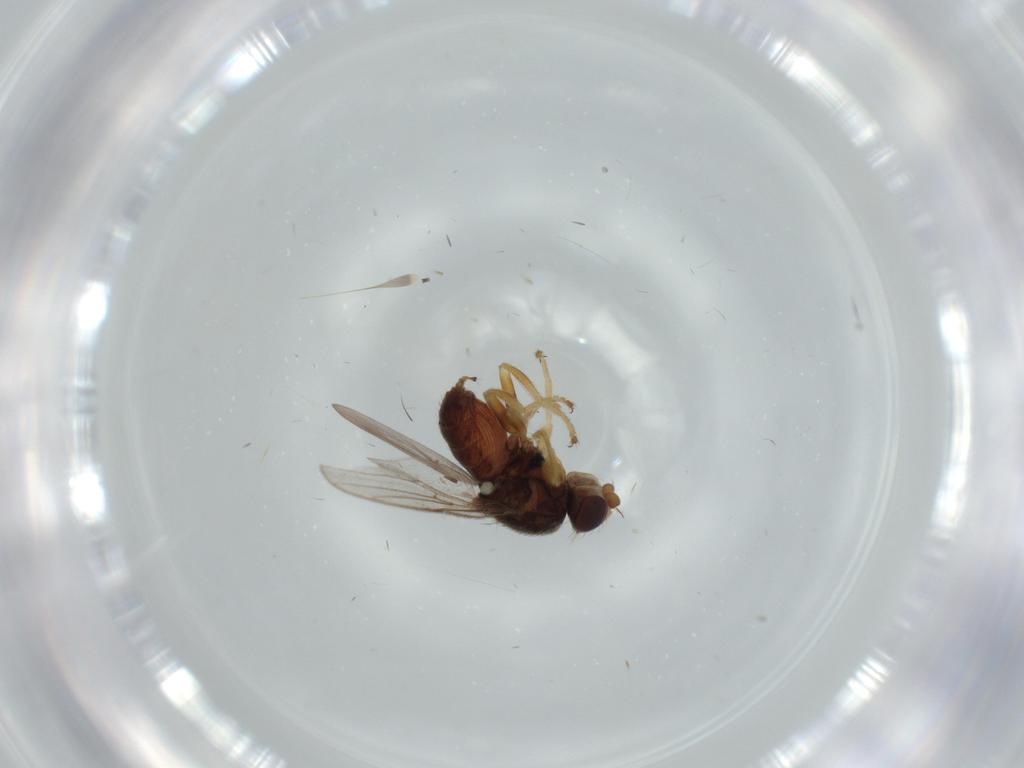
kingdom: Animalia
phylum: Arthropoda
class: Insecta
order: Diptera
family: Chloropidae
